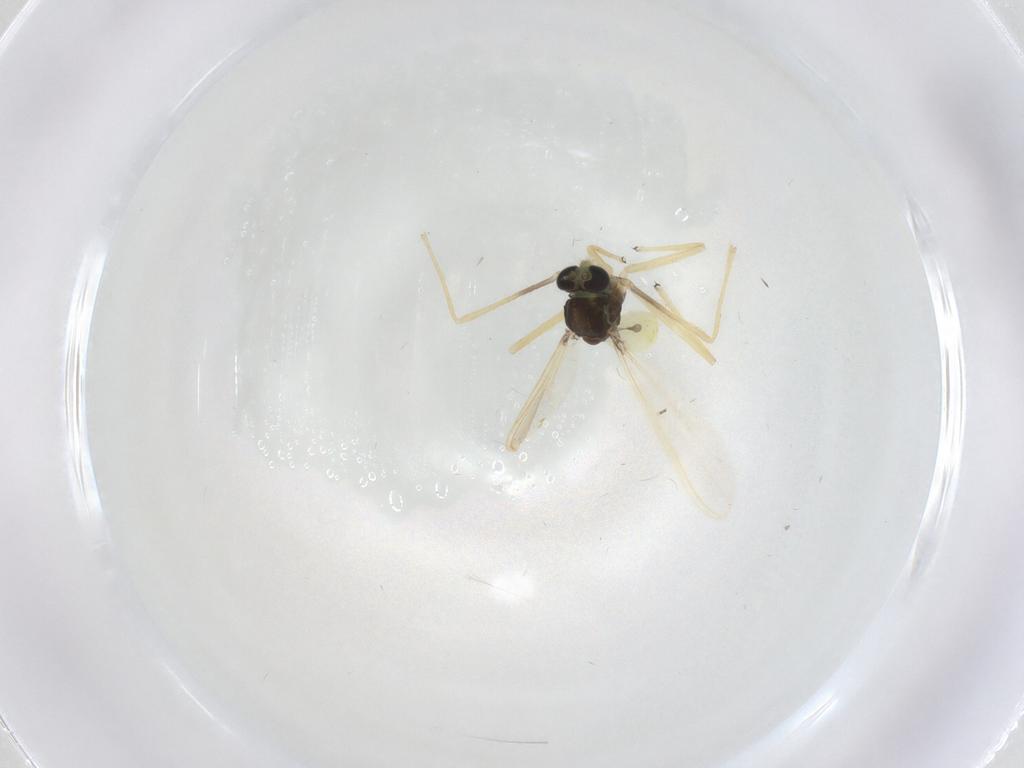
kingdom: Animalia
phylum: Arthropoda
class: Insecta
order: Diptera
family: Chironomidae
